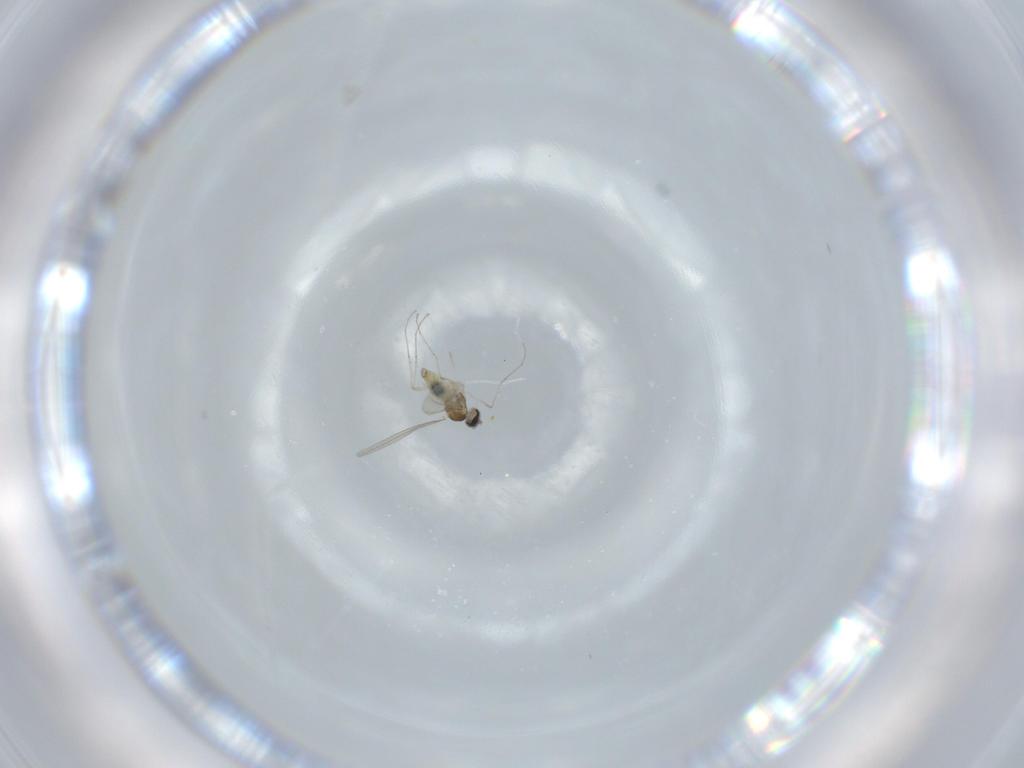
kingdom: Animalia
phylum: Arthropoda
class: Insecta
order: Diptera
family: Cecidomyiidae
